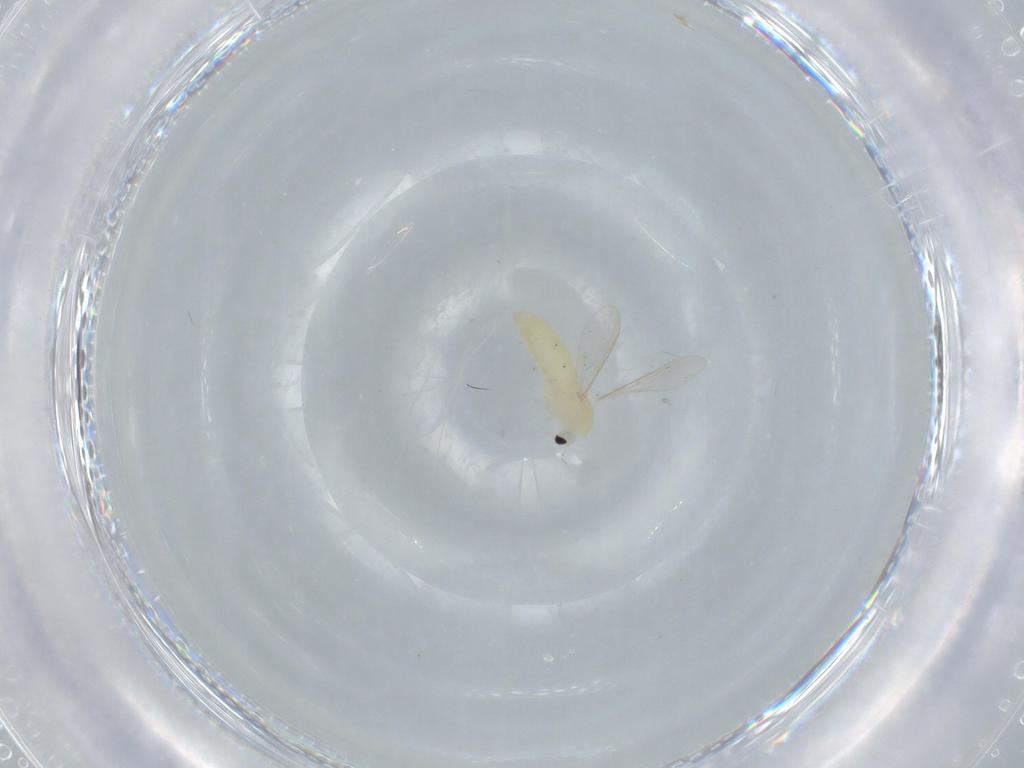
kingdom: Animalia
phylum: Arthropoda
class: Insecta
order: Diptera
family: Chironomidae
